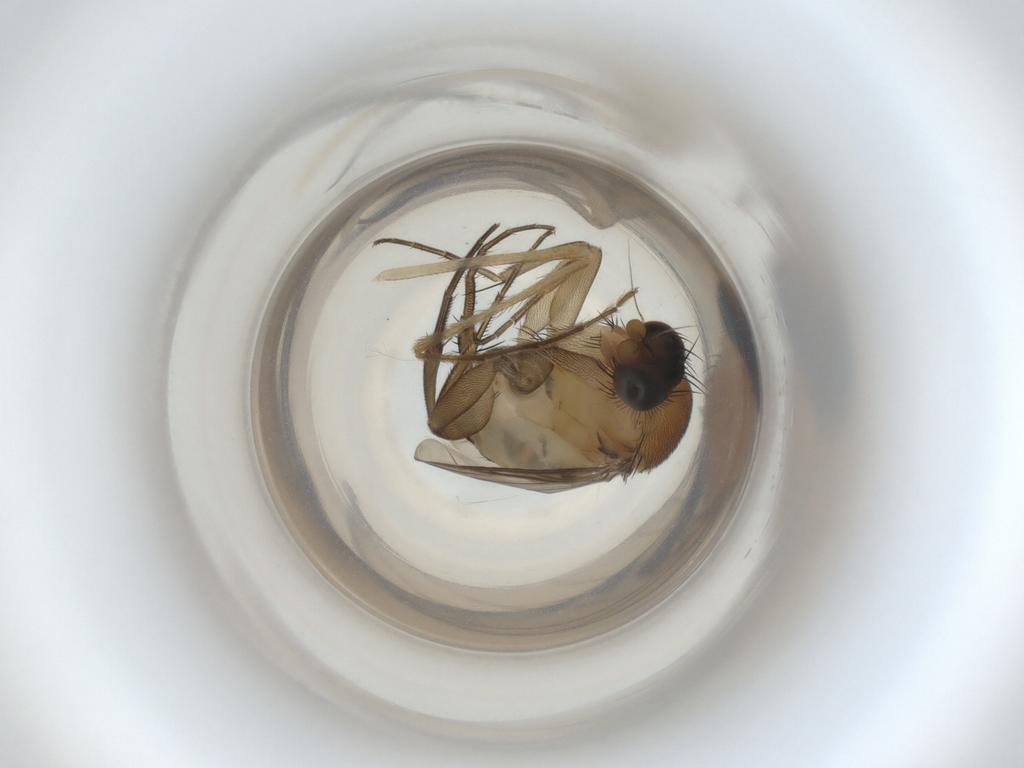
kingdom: Animalia
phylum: Arthropoda
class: Insecta
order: Diptera
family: Phoridae
